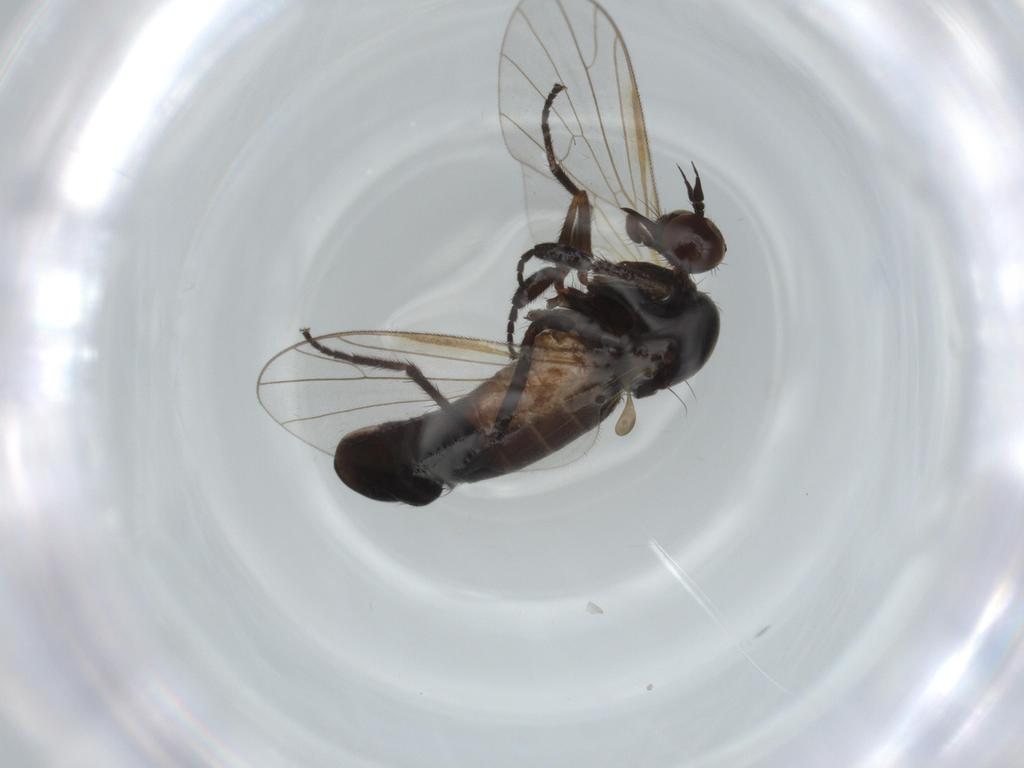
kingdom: Animalia
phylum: Arthropoda
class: Insecta
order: Diptera
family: Empididae
